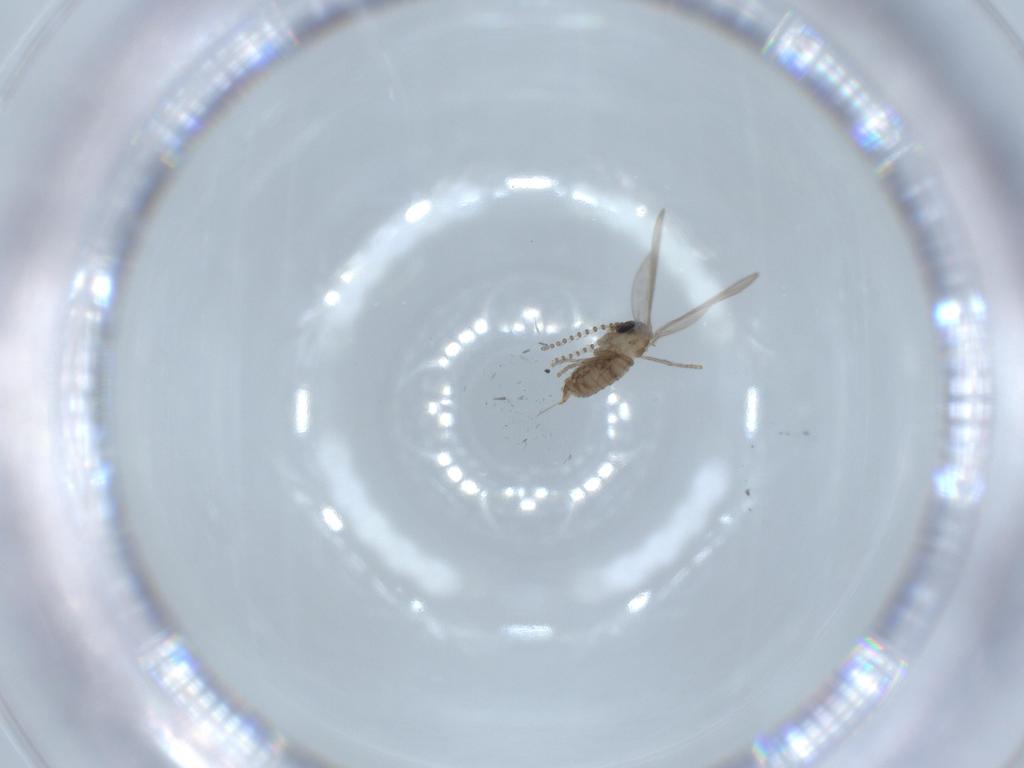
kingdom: Animalia
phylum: Arthropoda
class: Insecta
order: Diptera
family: Psychodidae
